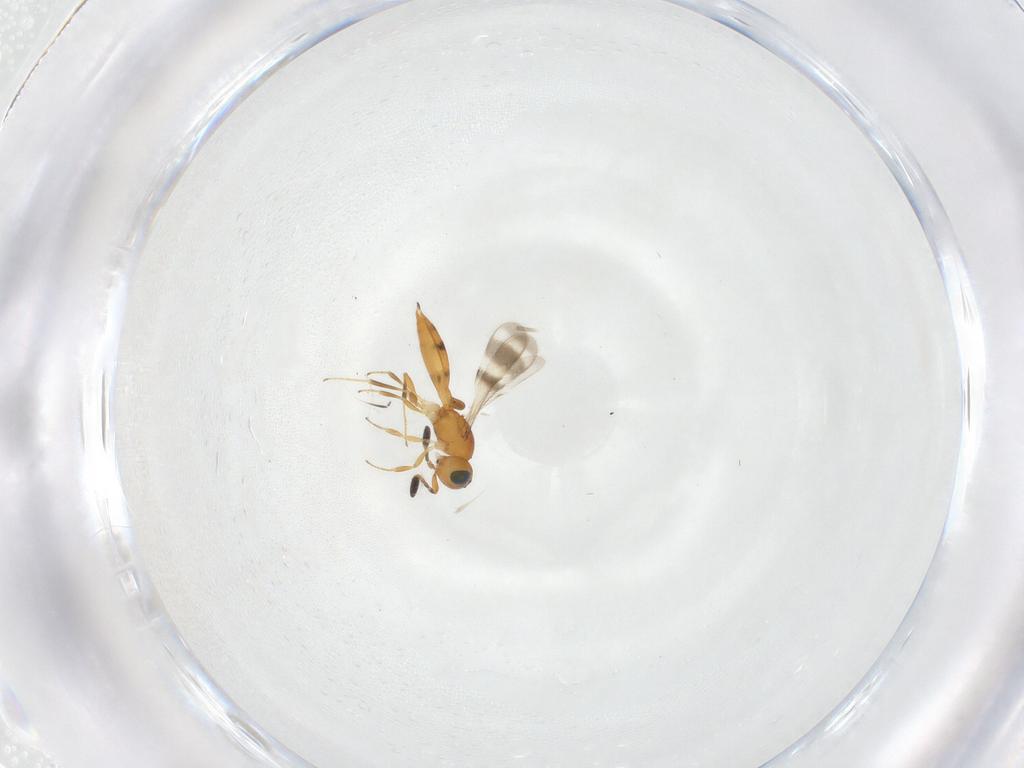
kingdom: Animalia
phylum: Arthropoda
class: Insecta
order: Hymenoptera
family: Scelionidae
